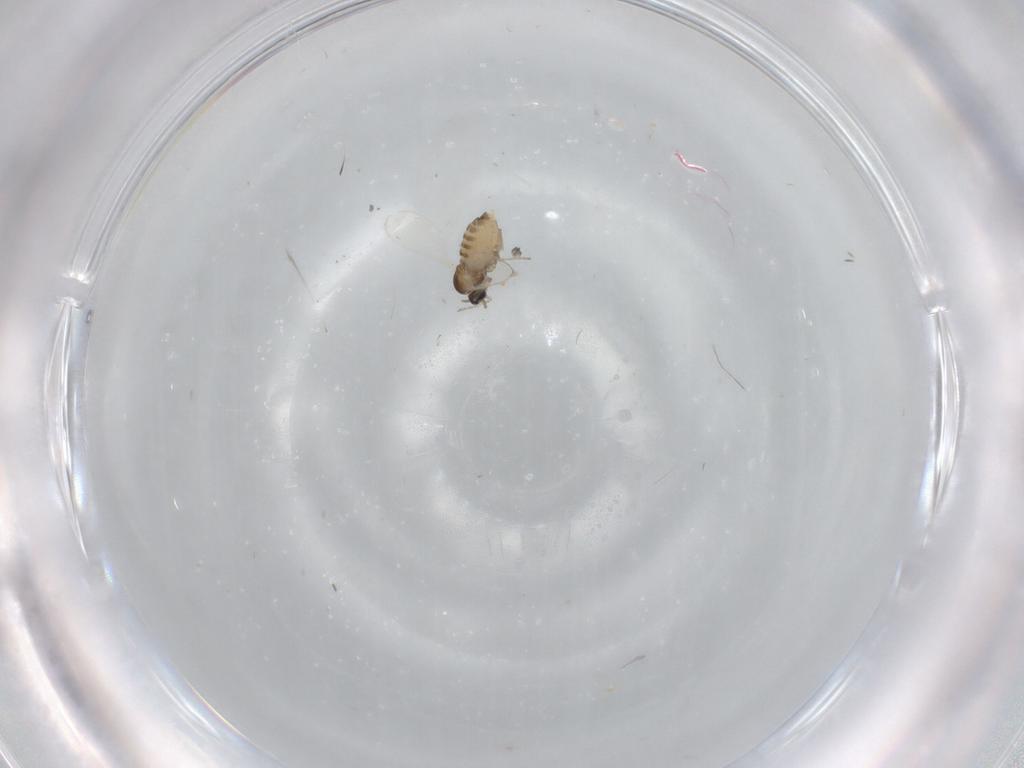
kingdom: Animalia
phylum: Arthropoda
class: Insecta
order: Diptera
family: Cecidomyiidae
